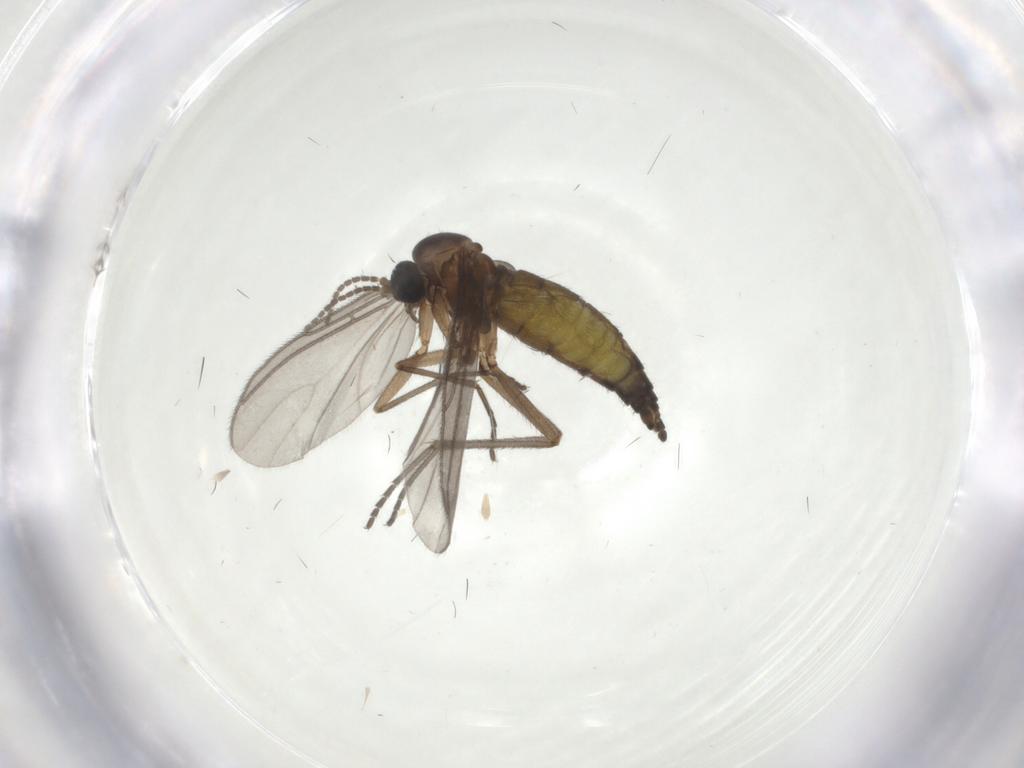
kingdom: Animalia
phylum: Arthropoda
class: Insecta
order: Diptera
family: Sciaridae
